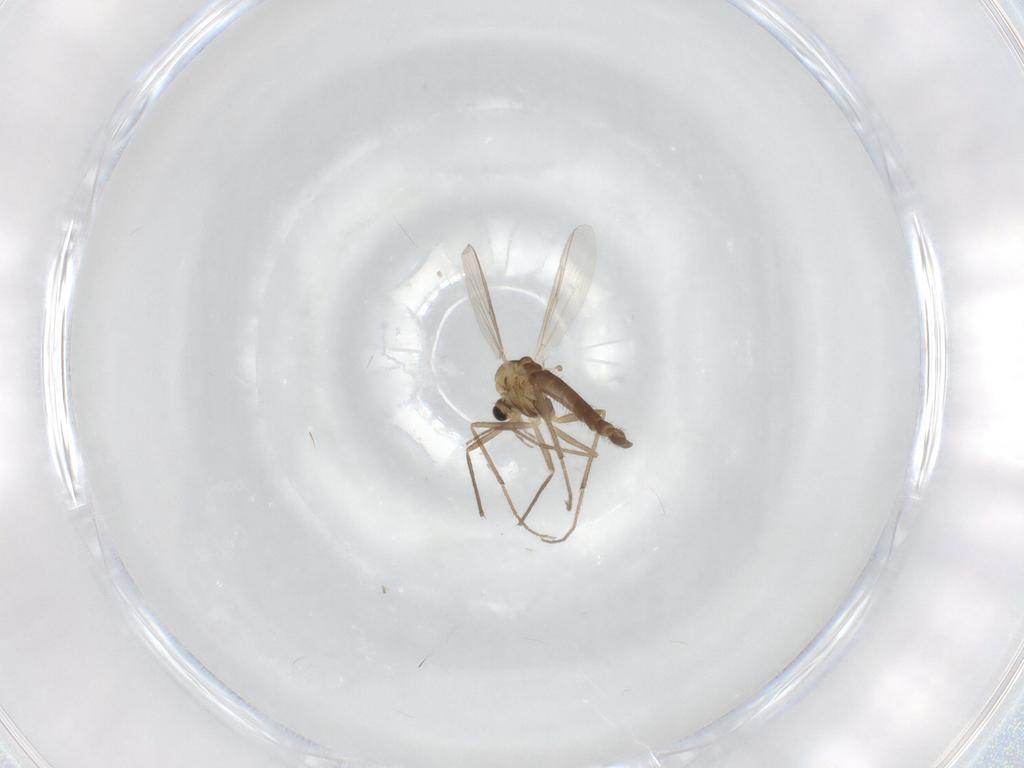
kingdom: Animalia
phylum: Arthropoda
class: Insecta
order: Diptera
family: Chironomidae
